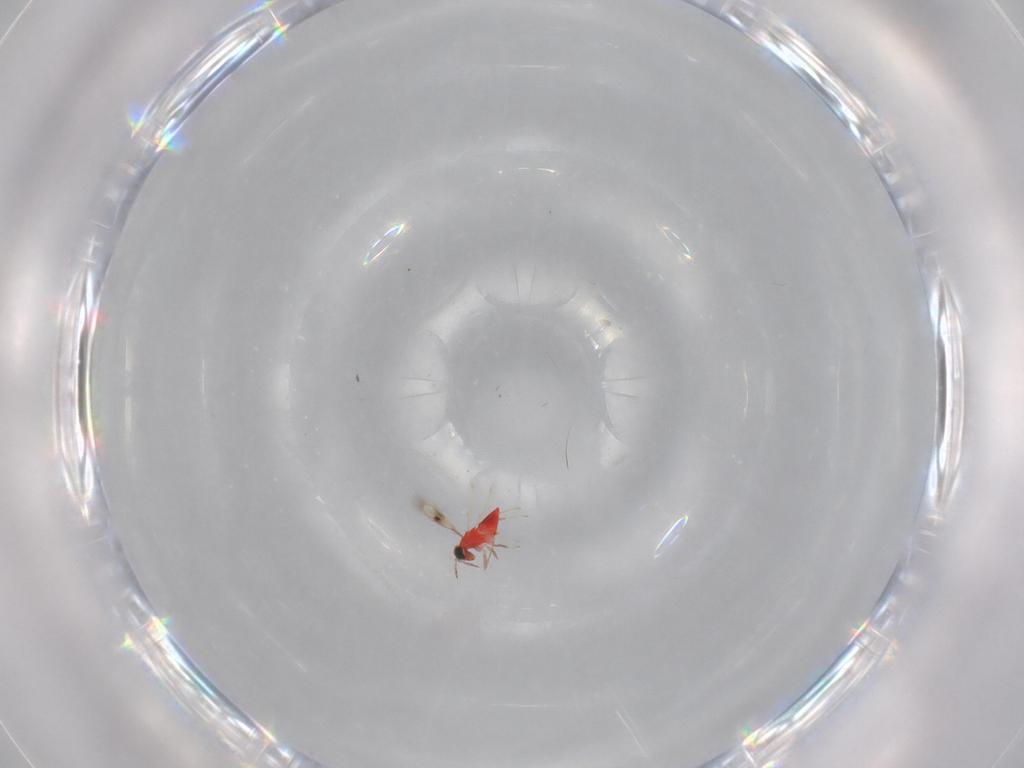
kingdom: Animalia
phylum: Arthropoda
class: Insecta
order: Hymenoptera
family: Trichogrammatidae
